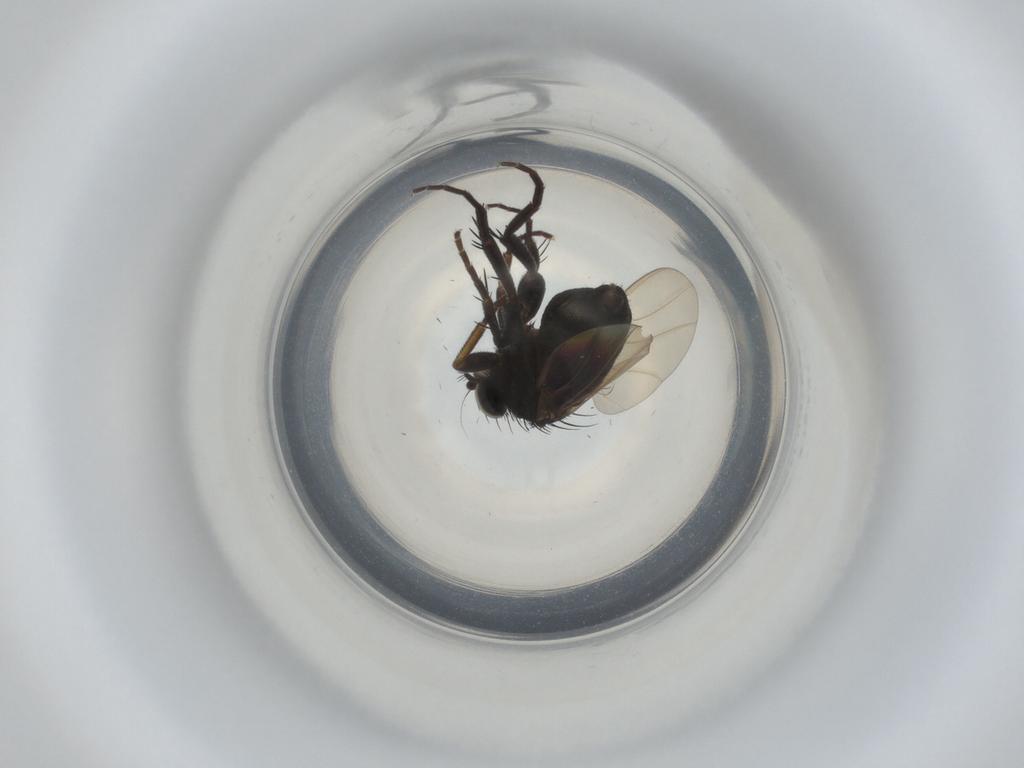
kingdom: Animalia
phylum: Arthropoda
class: Insecta
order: Diptera
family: Phoridae
